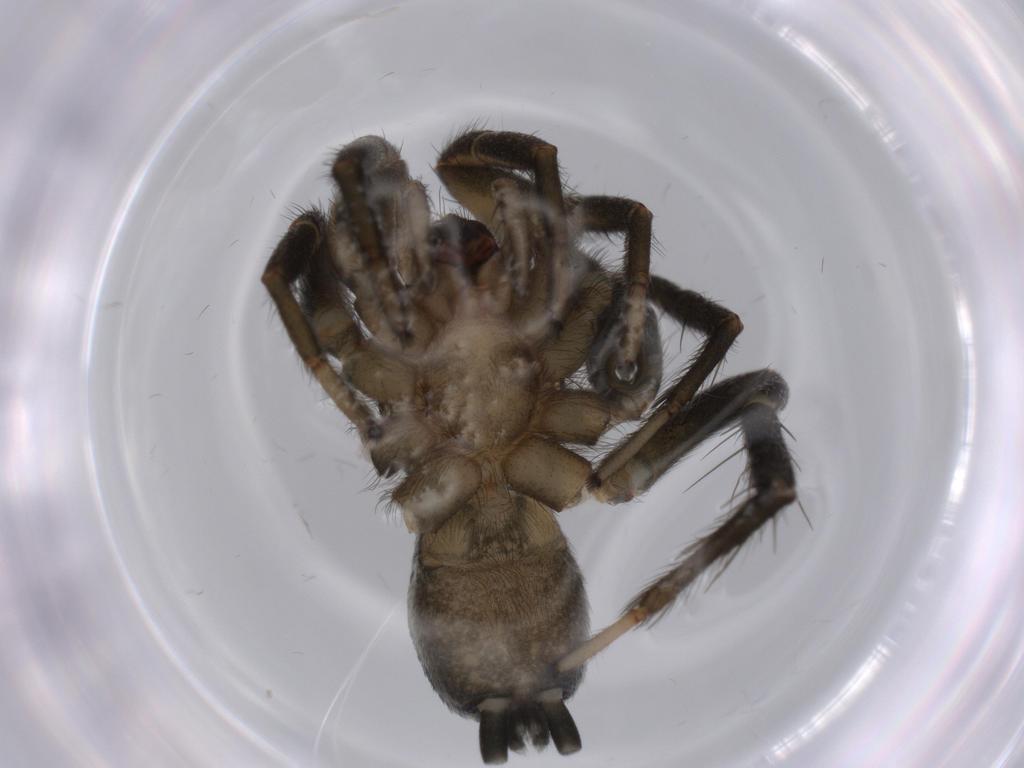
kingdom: Animalia
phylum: Arthropoda
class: Arachnida
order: Araneae
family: Gnaphosidae
